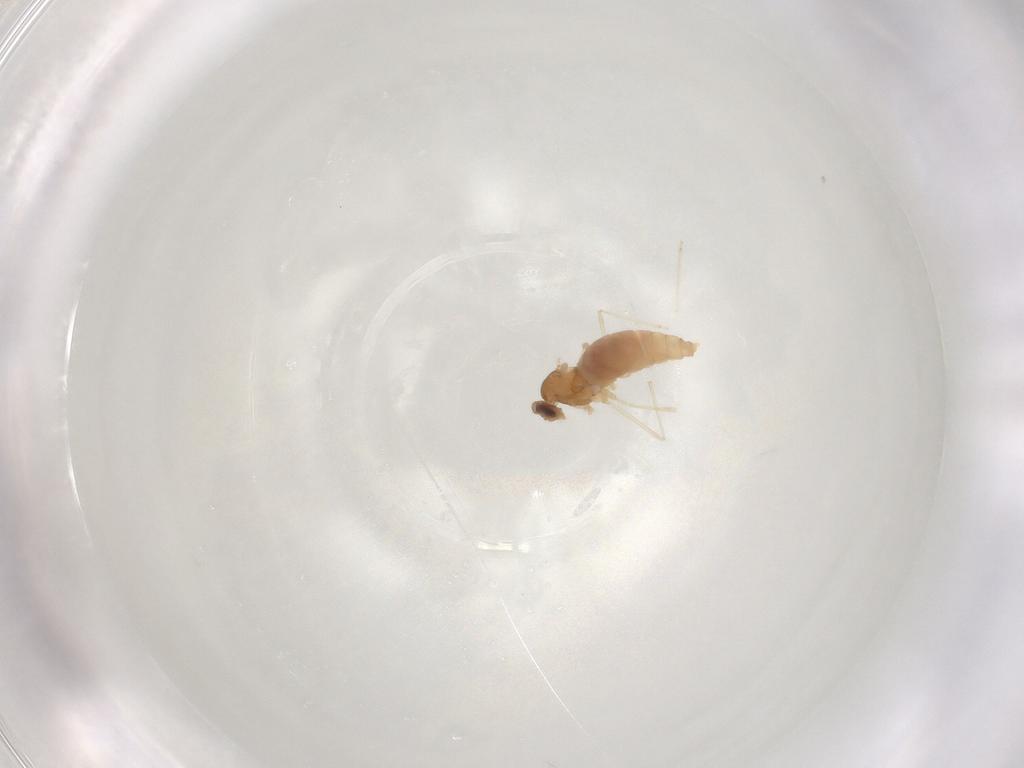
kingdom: Animalia
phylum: Arthropoda
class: Insecta
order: Diptera
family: Cecidomyiidae
